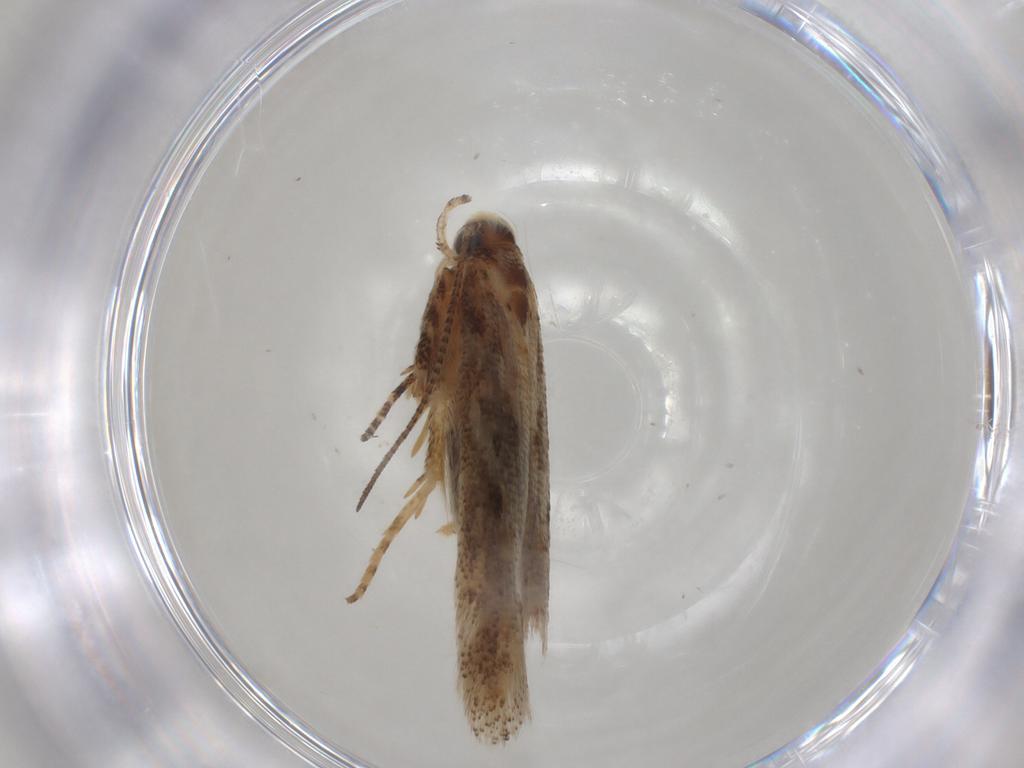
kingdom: Animalia
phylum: Arthropoda
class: Insecta
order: Lepidoptera
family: Gelechiidae
